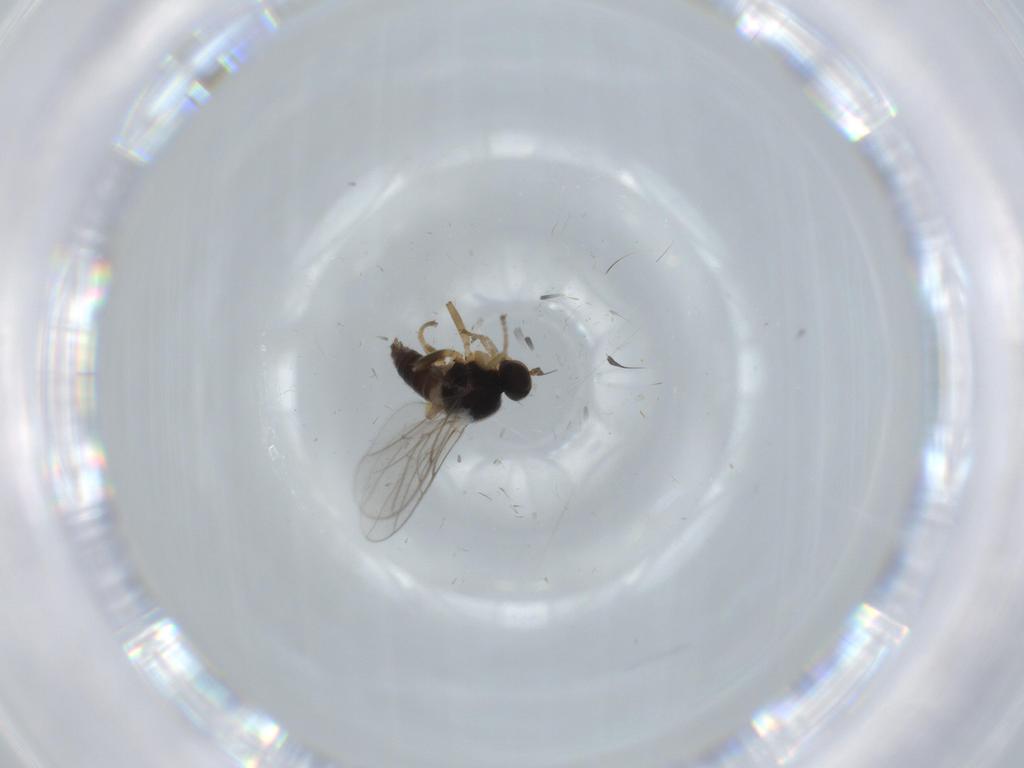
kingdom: Animalia
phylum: Arthropoda
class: Insecta
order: Diptera
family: Hybotidae
